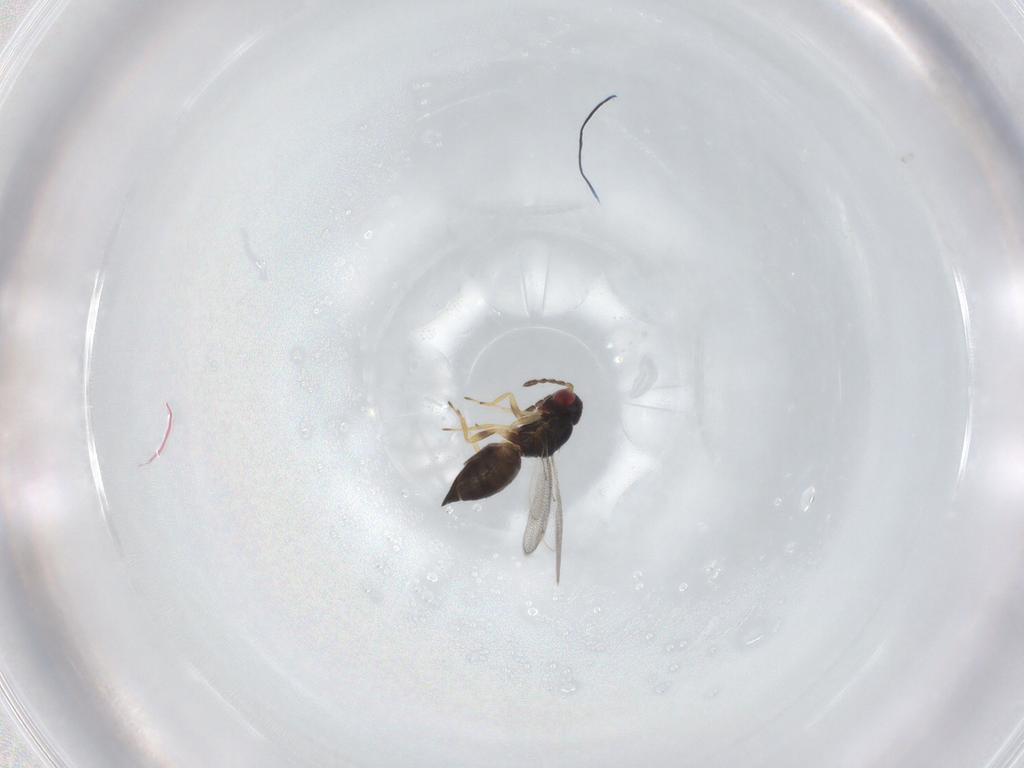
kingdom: Animalia
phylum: Arthropoda
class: Insecta
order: Hymenoptera
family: Eulophidae
